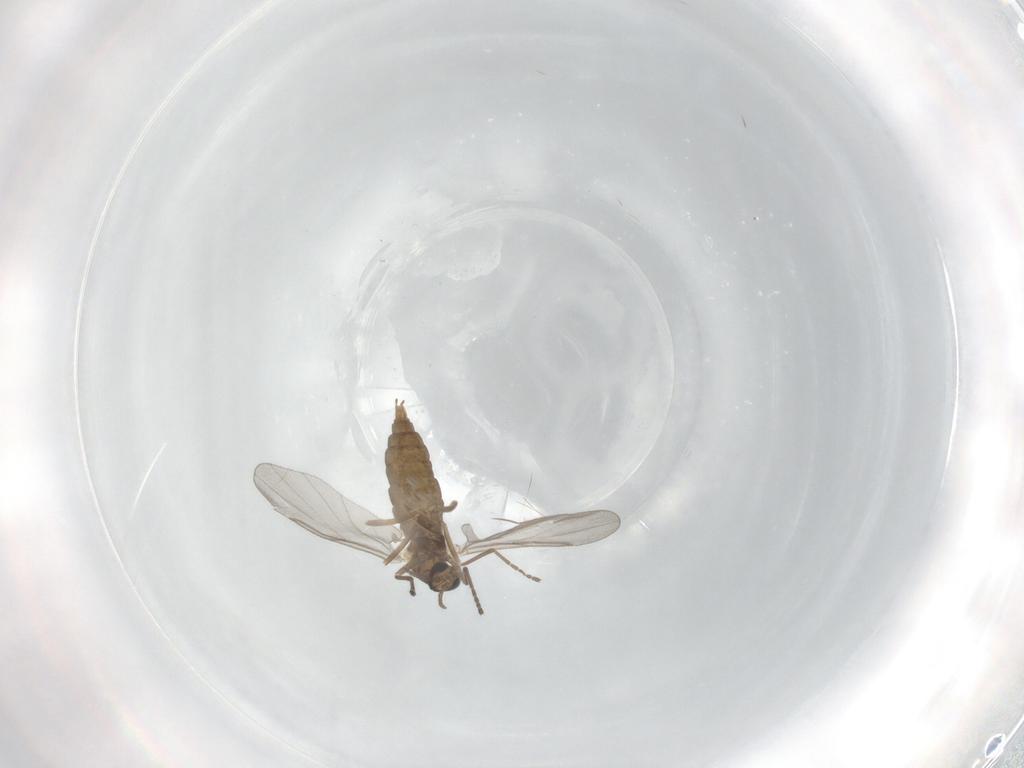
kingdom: Animalia
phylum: Arthropoda
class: Insecta
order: Diptera
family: Cecidomyiidae
